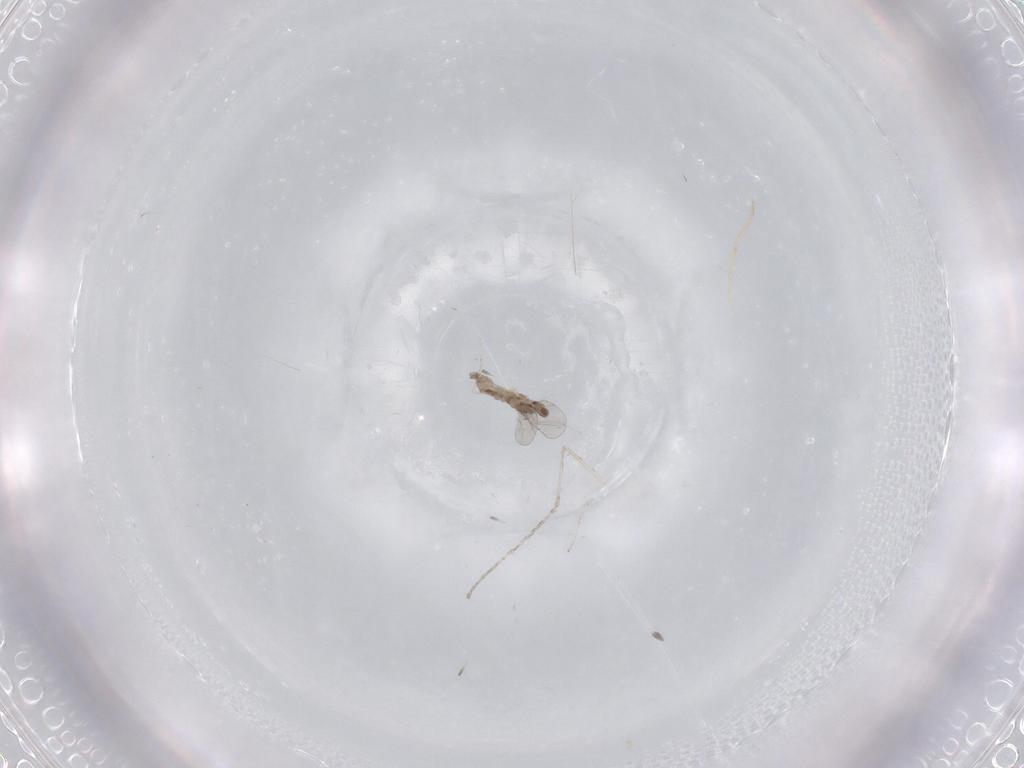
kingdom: Animalia
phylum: Arthropoda
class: Insecta
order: Diptera
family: Cecidomyiidae
